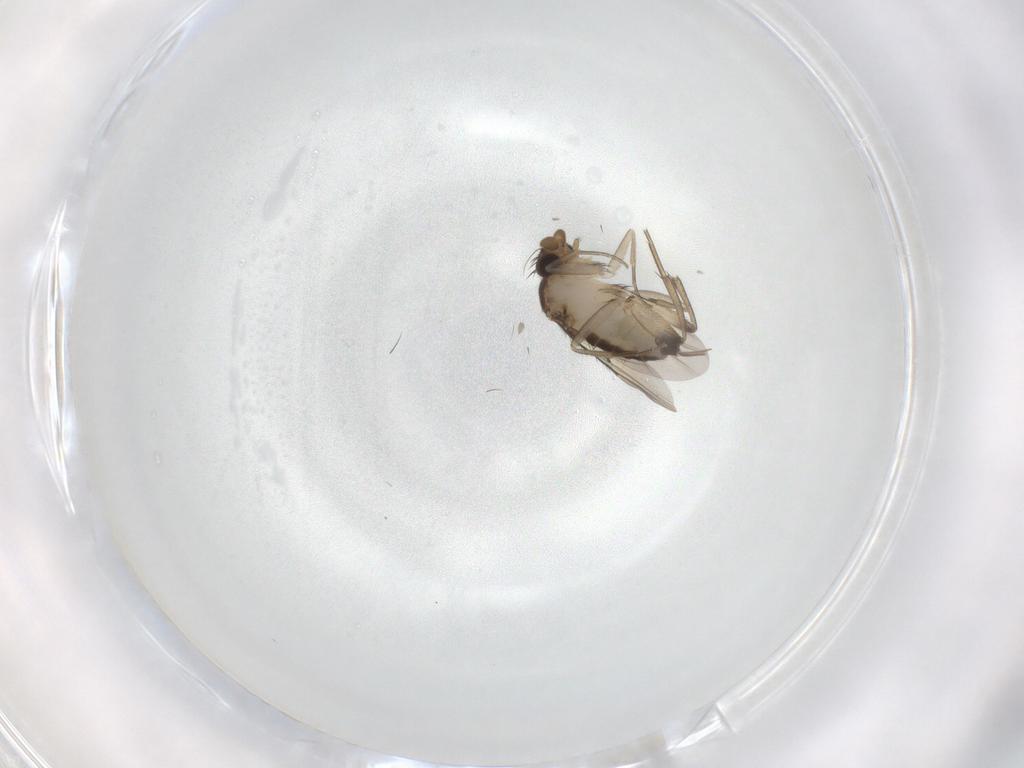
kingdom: Animalia
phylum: Arthropoda
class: Insecta
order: Diptera
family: Phoridae
